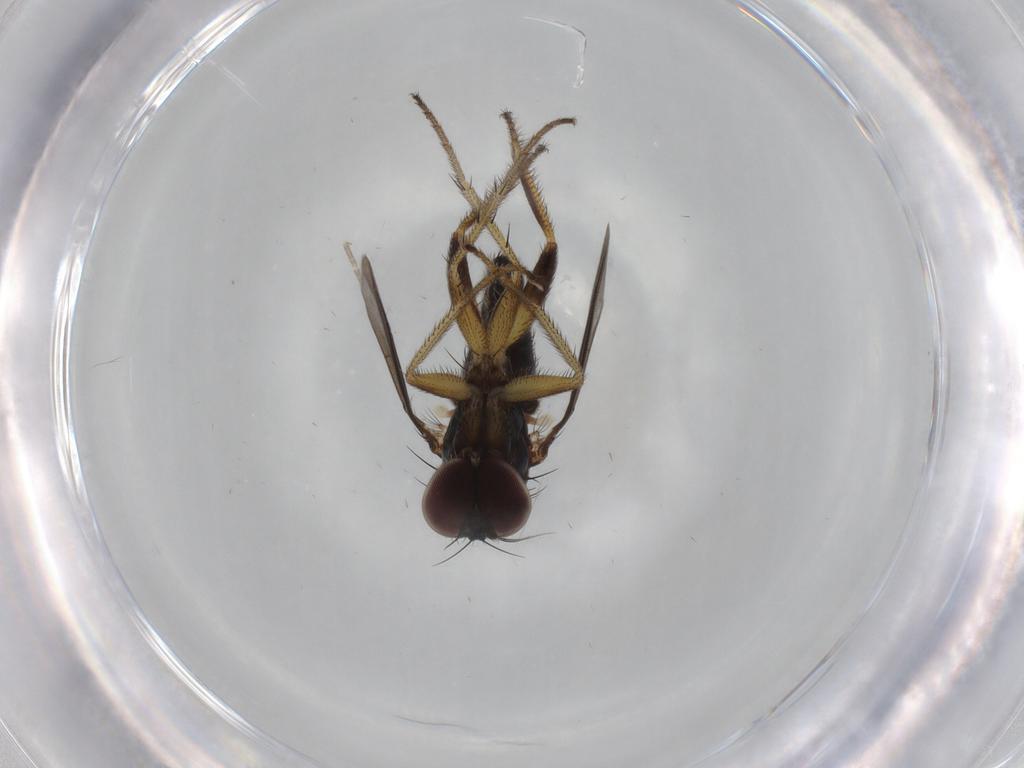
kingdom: Animalia
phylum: Arthropoda
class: Insecta
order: Diptera
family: Dolichopodidae
